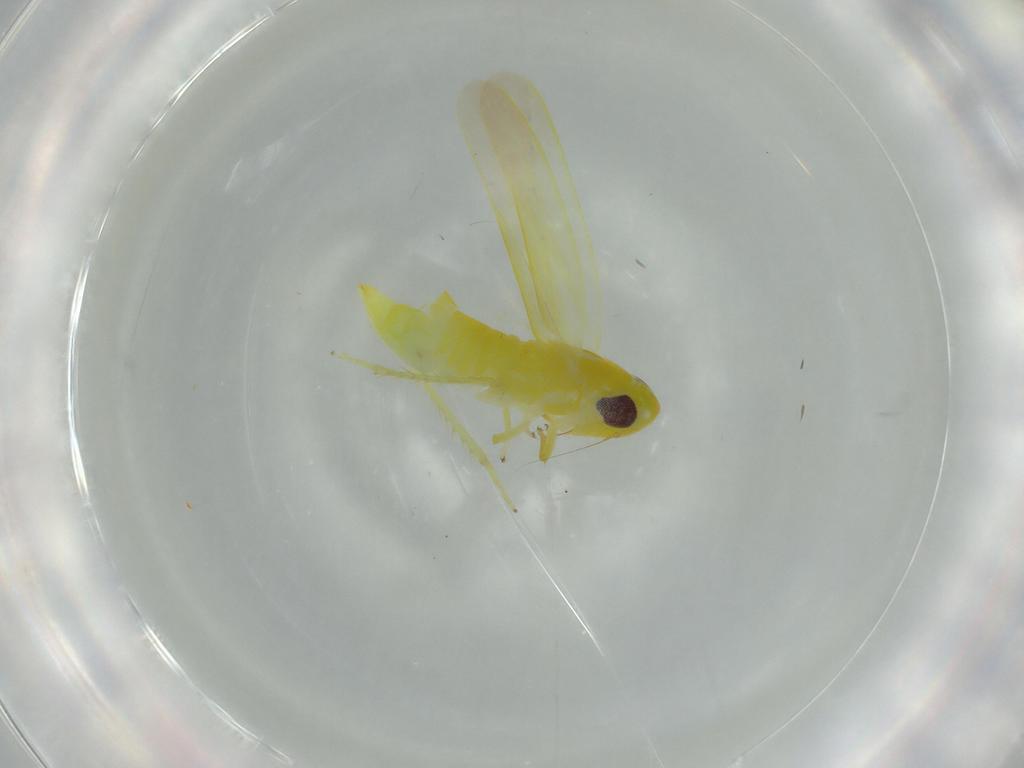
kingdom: Animalia
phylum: Arthropoda
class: Insecta
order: Hemiptera
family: Cicadellidae
